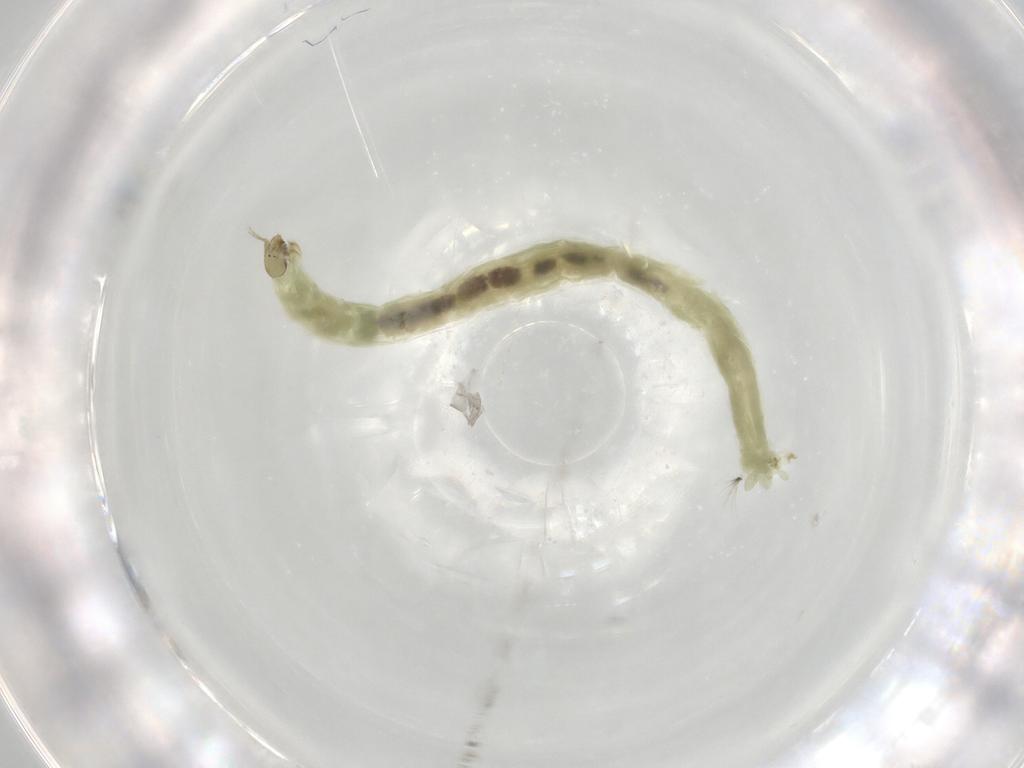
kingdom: Animalia
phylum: Arthropoda
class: Insecta
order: Diptera
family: Chironomidae
